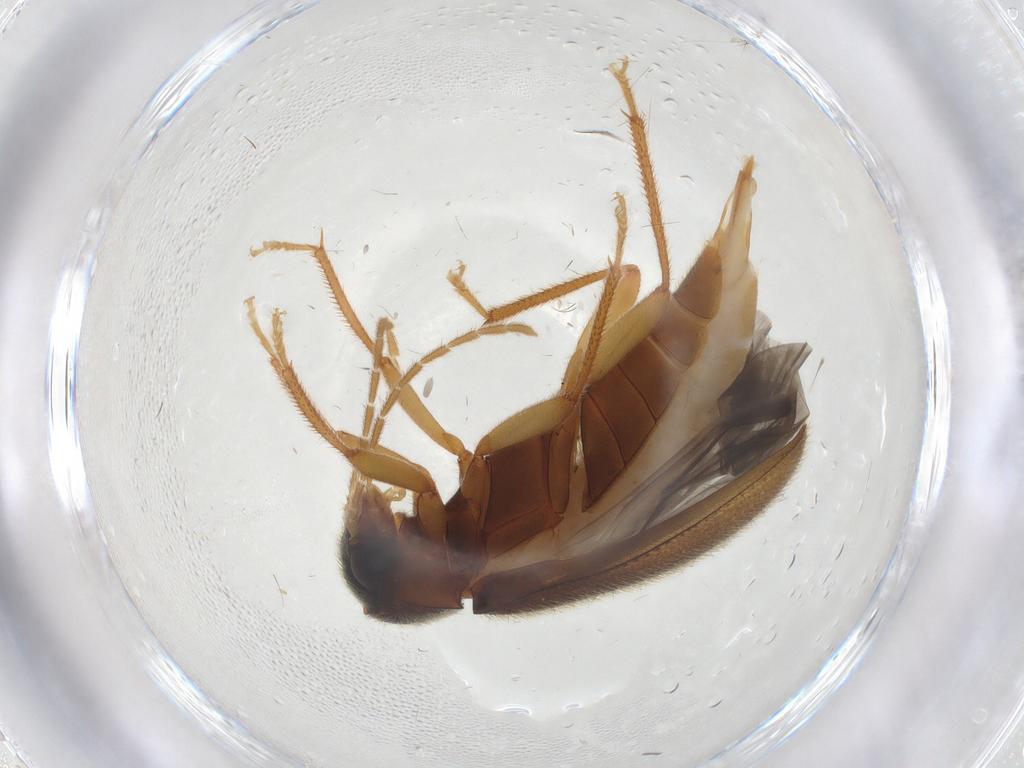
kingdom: Animalia
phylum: Arthropoda
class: Insecta
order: Coleoptera
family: Ptilodactylidae
